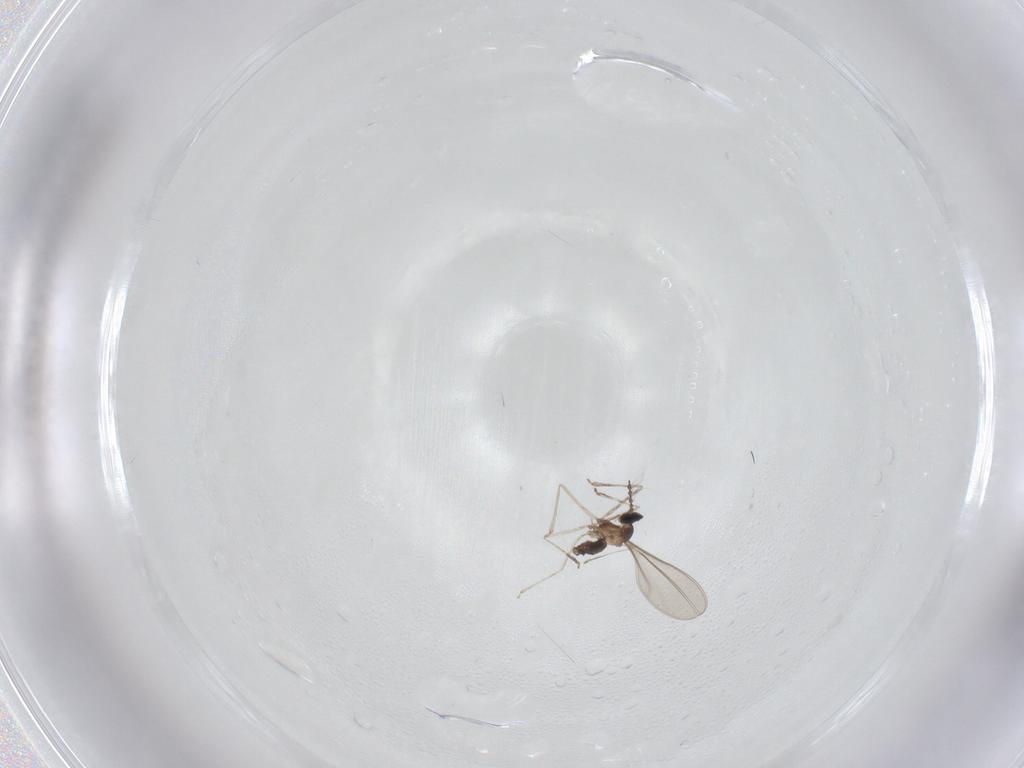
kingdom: Animalia
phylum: Arthropoda
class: Insecta
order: Diptera
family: Cecidomyiidae
